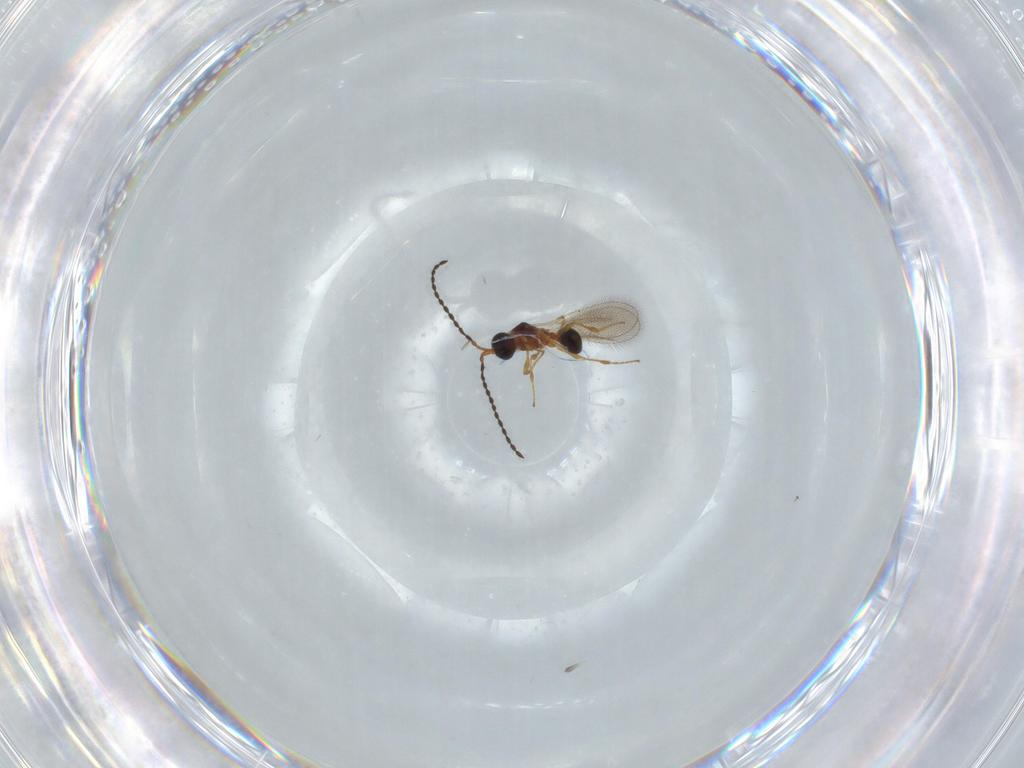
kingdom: Animalia
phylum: Arthropoda
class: Insecta
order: Hymenoptera
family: Diapriidae
